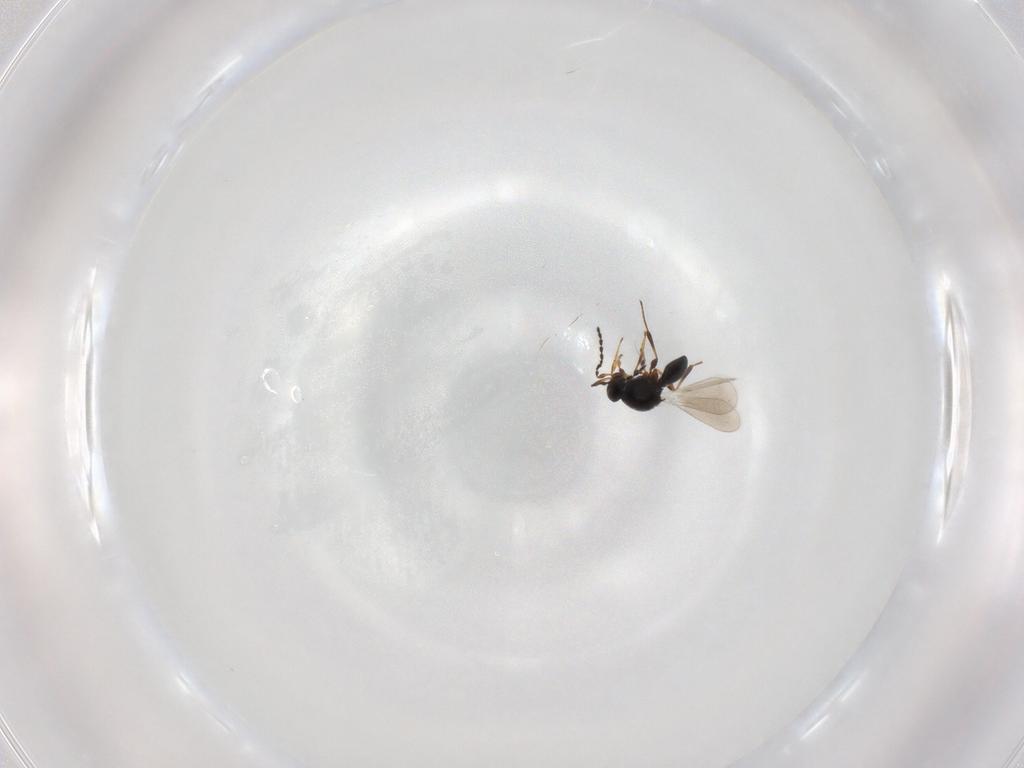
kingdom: Animalia
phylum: Arthropoda
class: Insecta
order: Hymenoptera
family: Platygastridae
